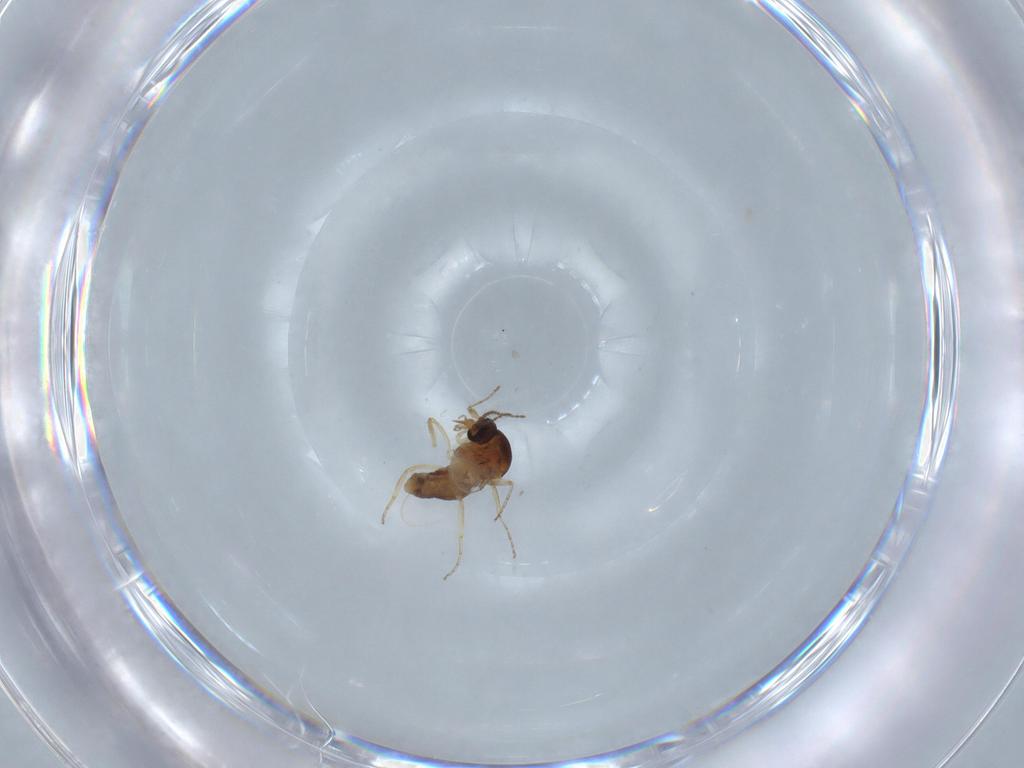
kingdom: Animalia
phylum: Arthropoda
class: Insecta
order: Diptera
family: Ceratopogonidae
